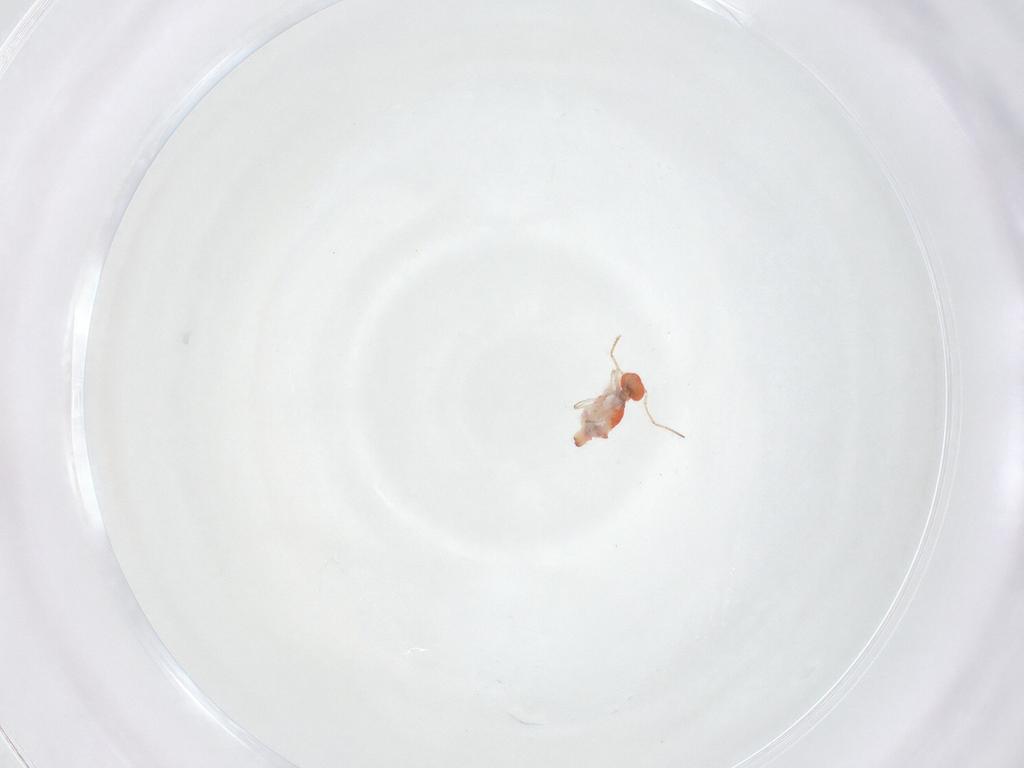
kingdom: Animalia
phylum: Arthropoda
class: Collembola
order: Symphypleona
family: Bourletiellidae
